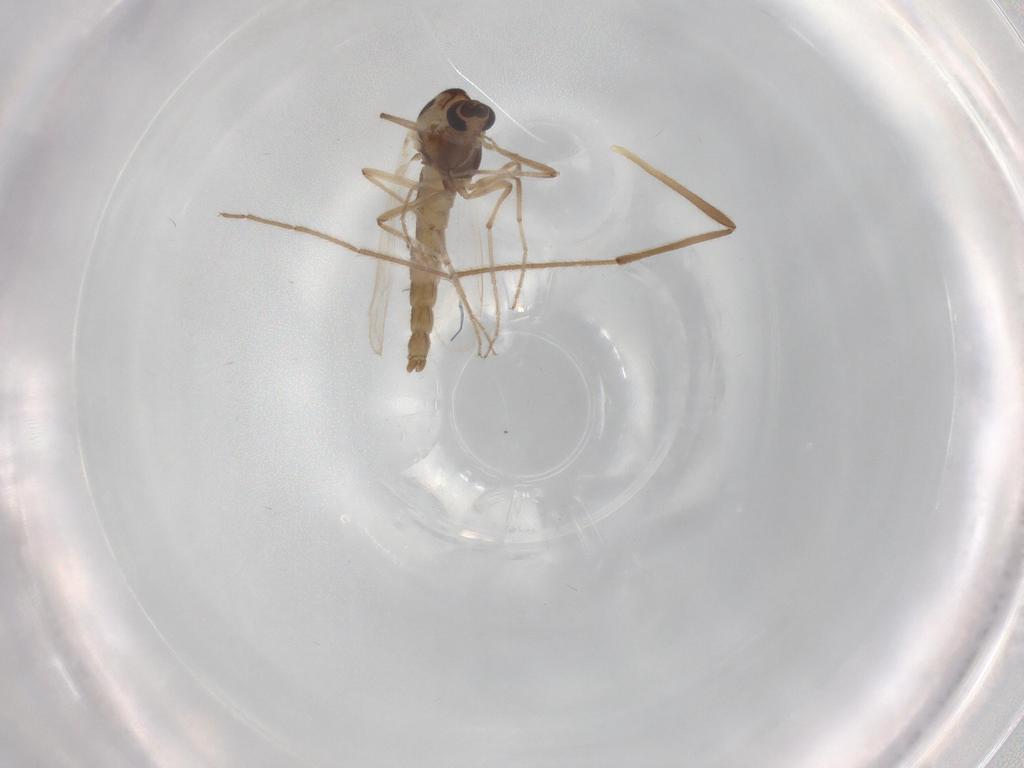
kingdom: Animalia
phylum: Arthropoda
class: Insecta
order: Diptera
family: Chironomidae
